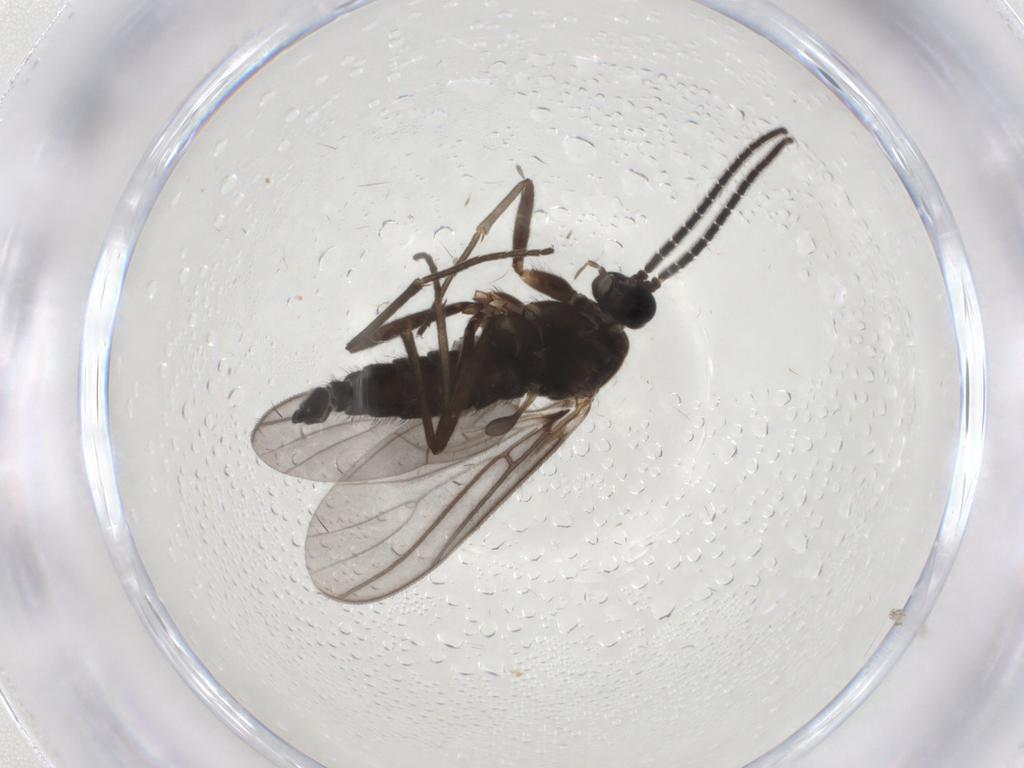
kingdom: Animalia
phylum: Arthropoda
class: Insecta
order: Diptera
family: Sciaridae
